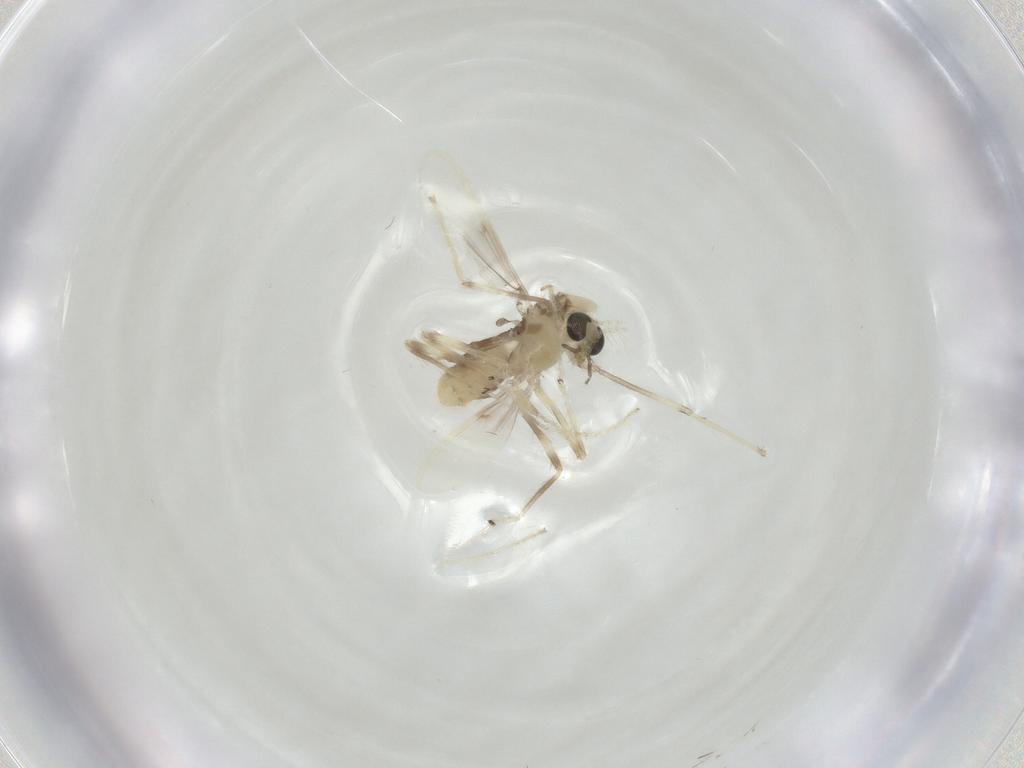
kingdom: Animalia
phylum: Arthropoda
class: Insecta
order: Diptera
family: Chironomidae
